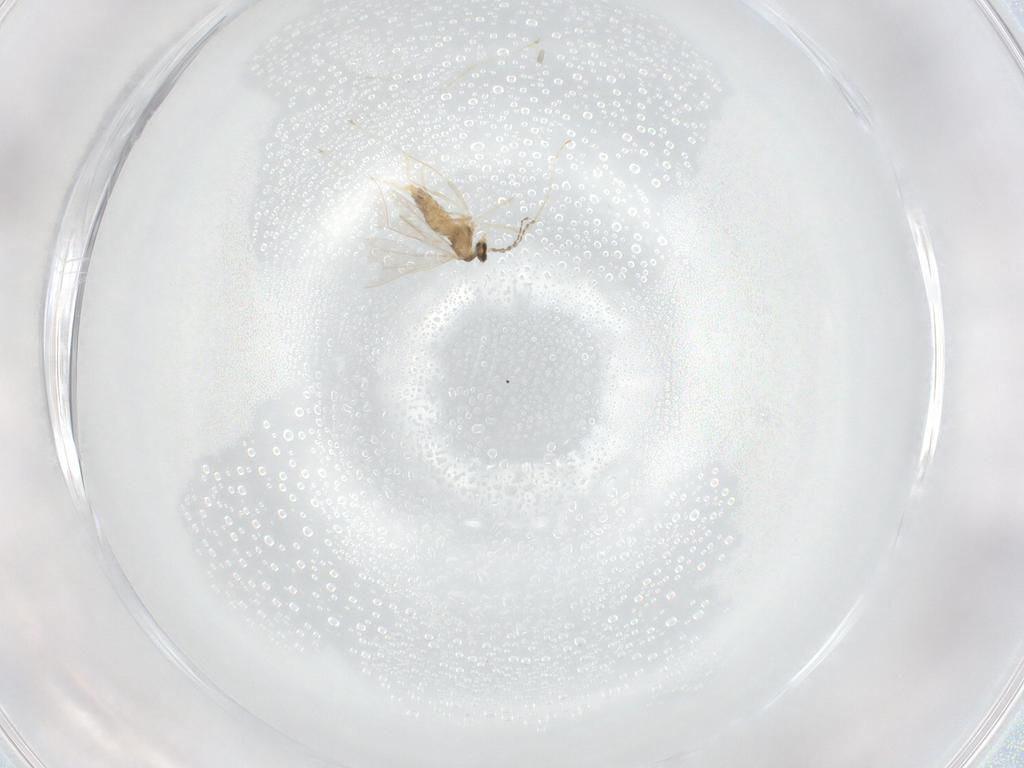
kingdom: Animalia
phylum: Arthropoda
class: Insecta
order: Diptera
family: Cecidomyiidae
